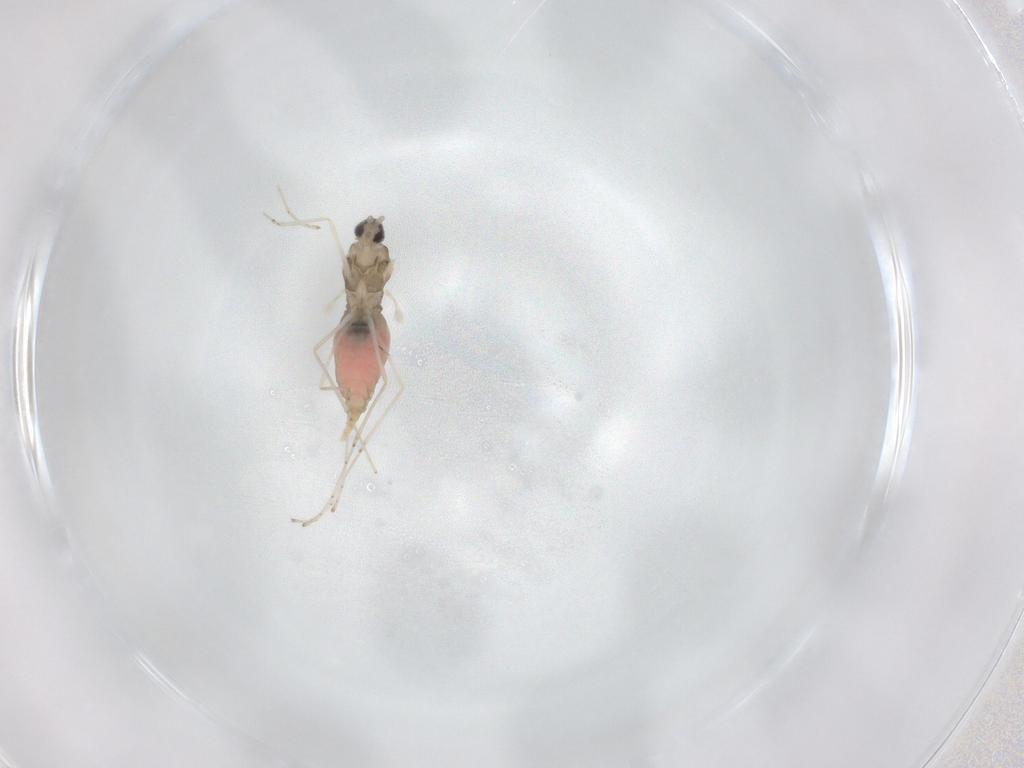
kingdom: Animalia
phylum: Arthropoda
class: Insecta
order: Diptera
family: Cecidomyiidae
